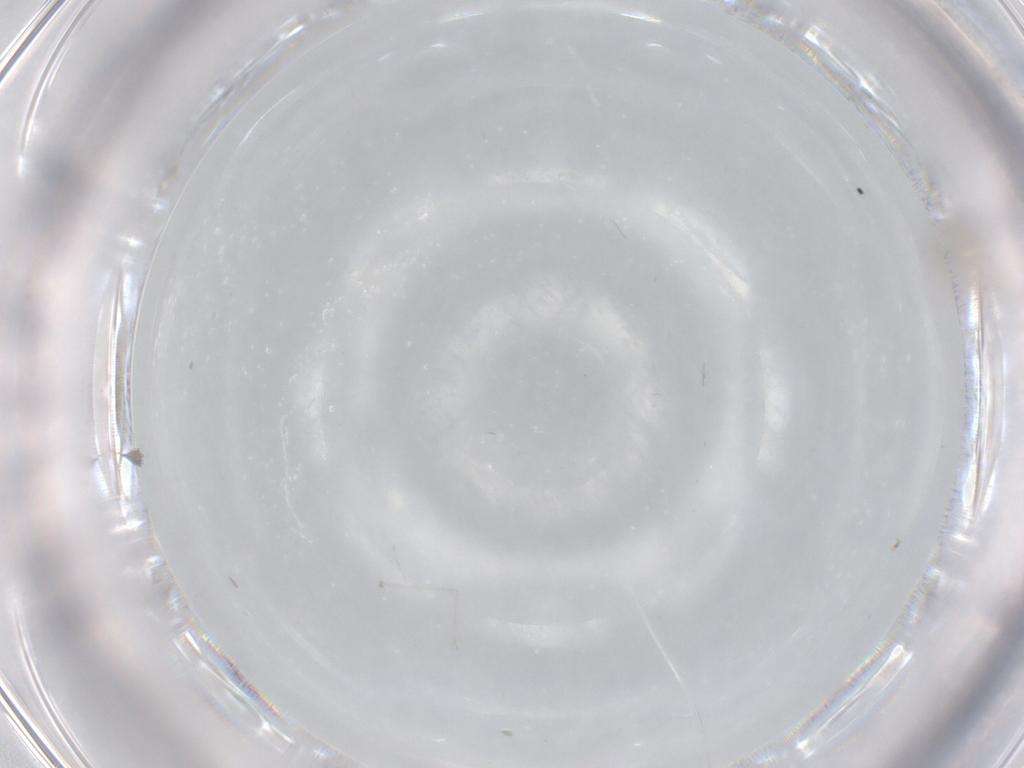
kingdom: Animalia
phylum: Arthropoda
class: Insecta
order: Diptera
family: Cecidomyiidae
